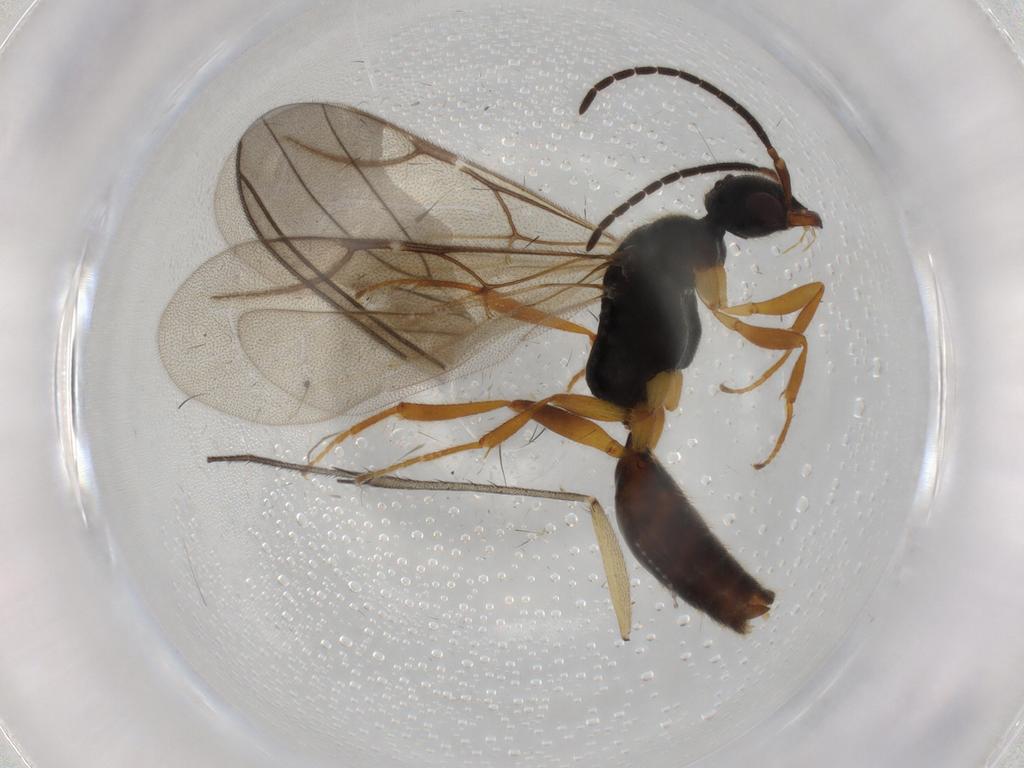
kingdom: Animalia
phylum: Arthropoda
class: Insecta
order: Hymenoptera
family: Bethylidae
